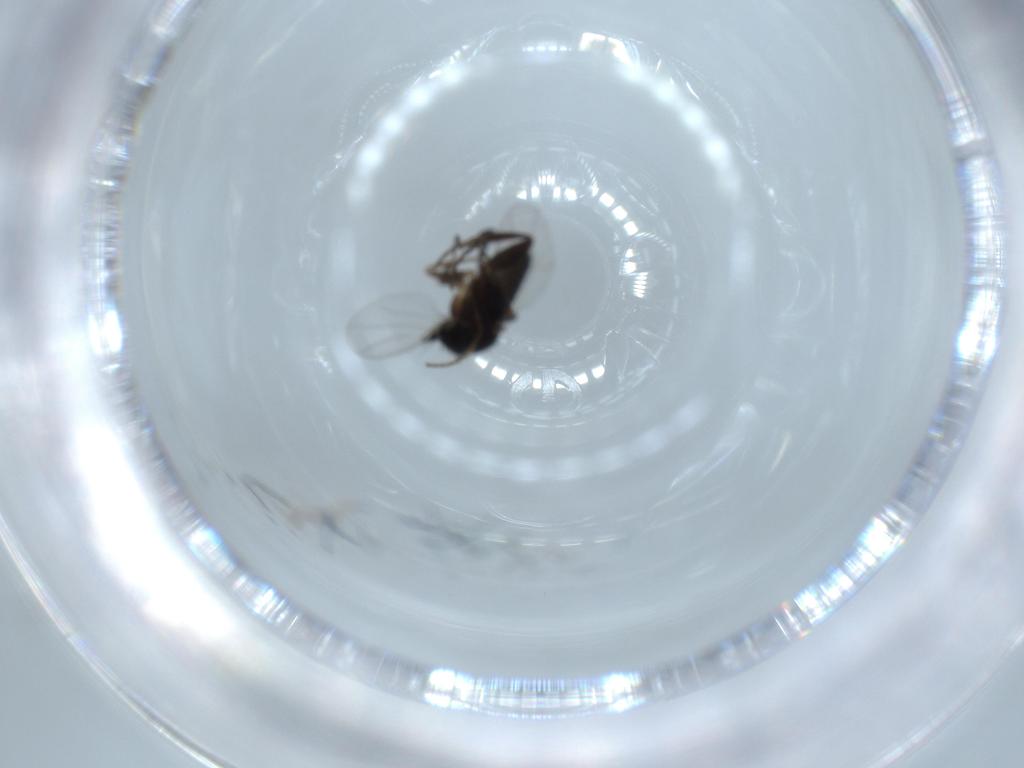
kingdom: Animalia
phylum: Arthropoda
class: Insecta
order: Diptera
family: Phoridae
